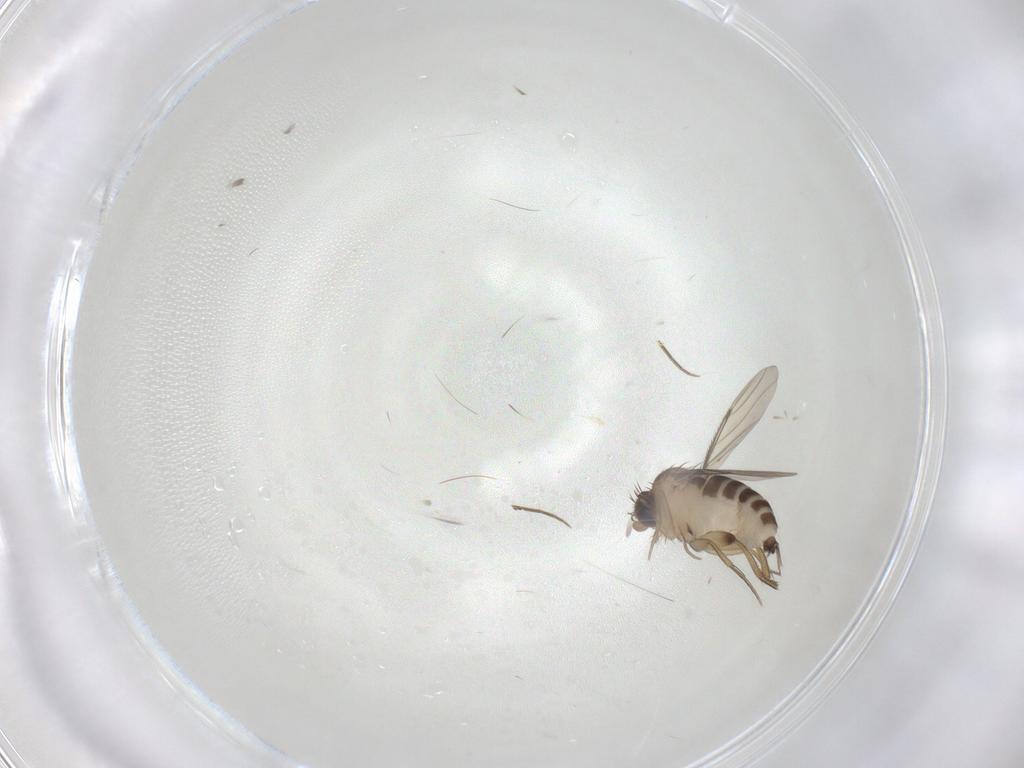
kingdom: Animalia
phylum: Arthropoda
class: Insecta
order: Diptera
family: Phoridae
